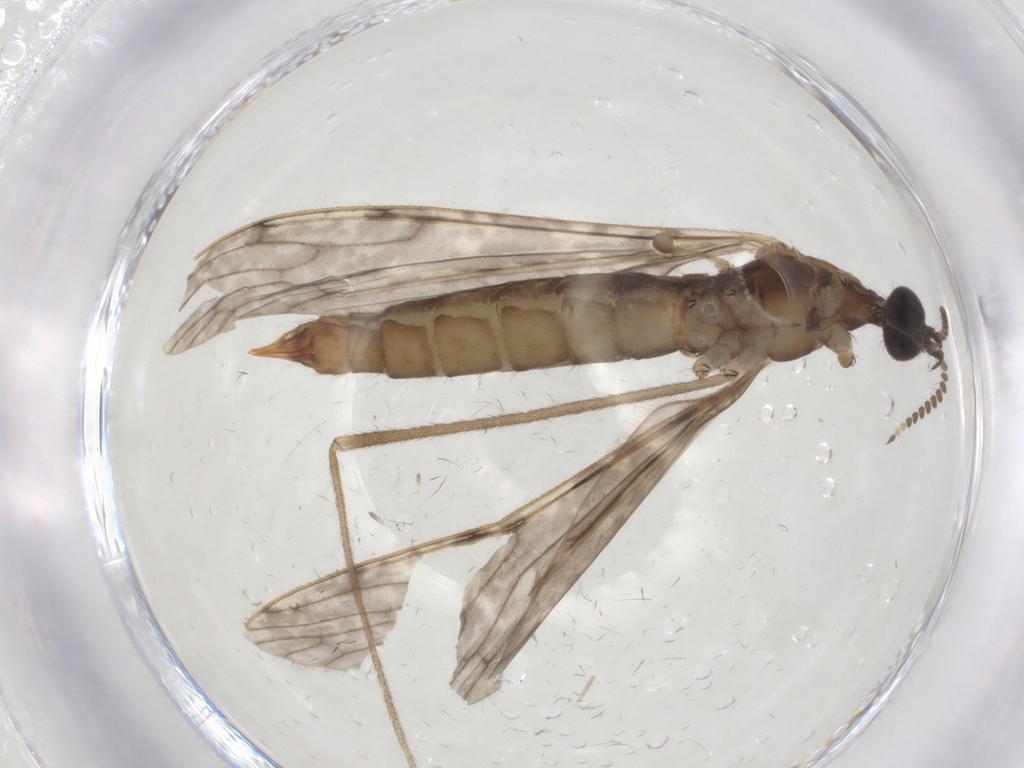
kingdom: Animalia
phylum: Arthropoda
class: Insecta
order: Diptera
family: Limoniidae
